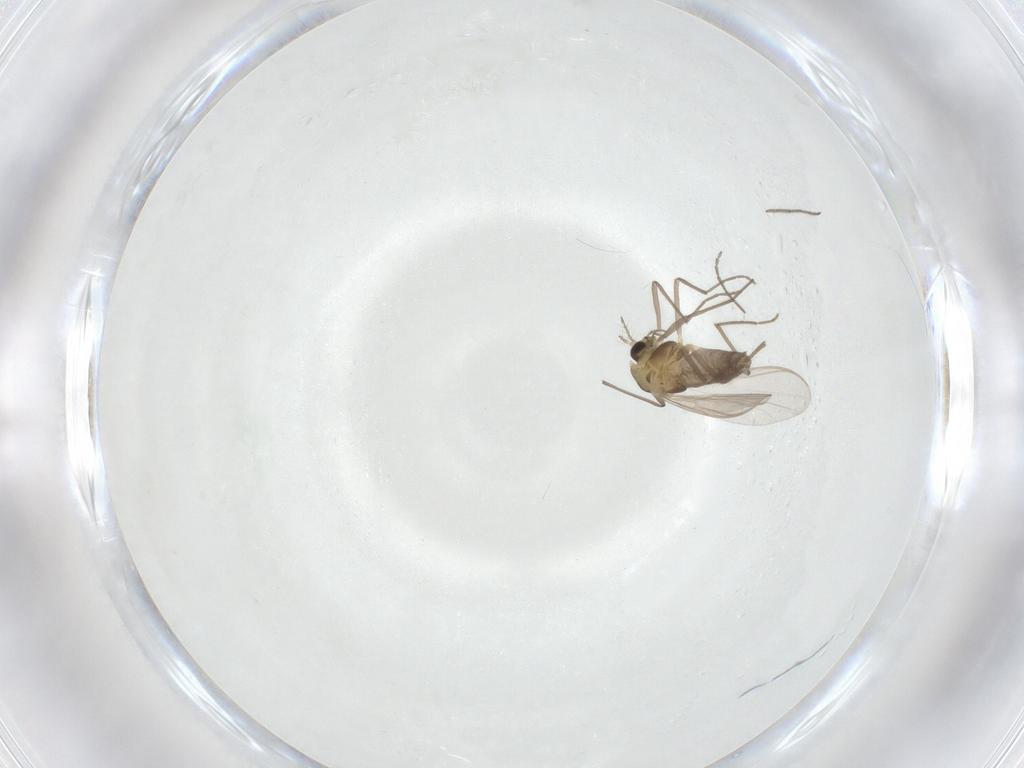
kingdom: Animalia
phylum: Arthropoda
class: Insecta
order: Diptera
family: Chironomidae
